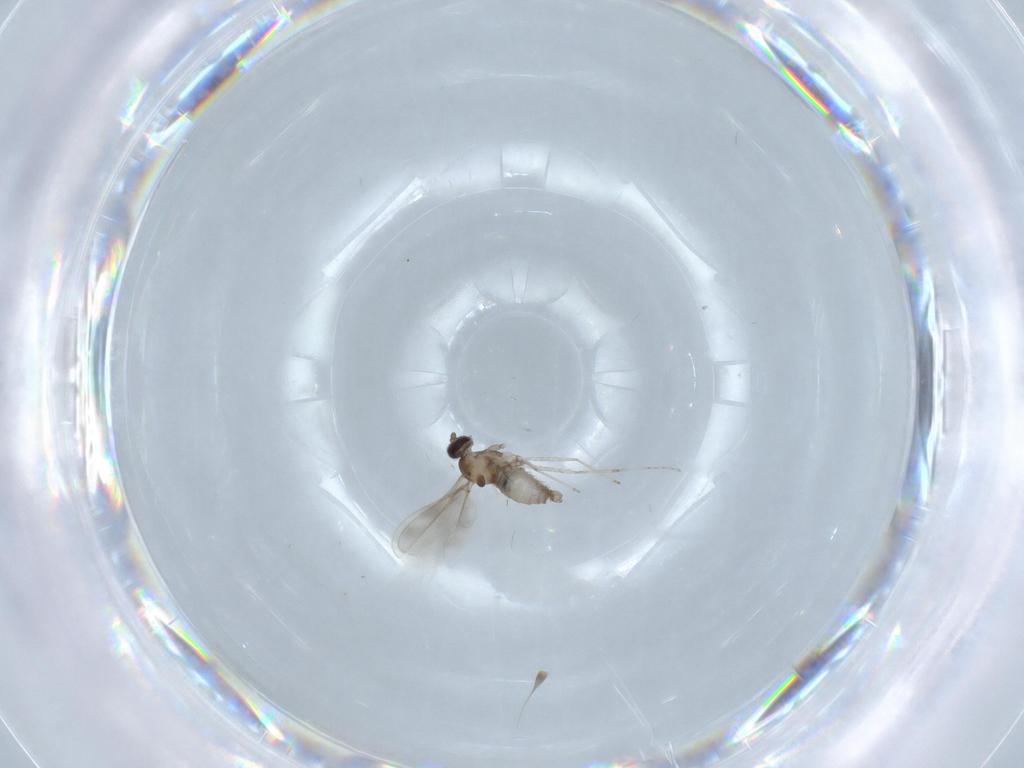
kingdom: Animalia
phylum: Arthropoda
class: Insecta
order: Diptera
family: Cecidomyiidae
